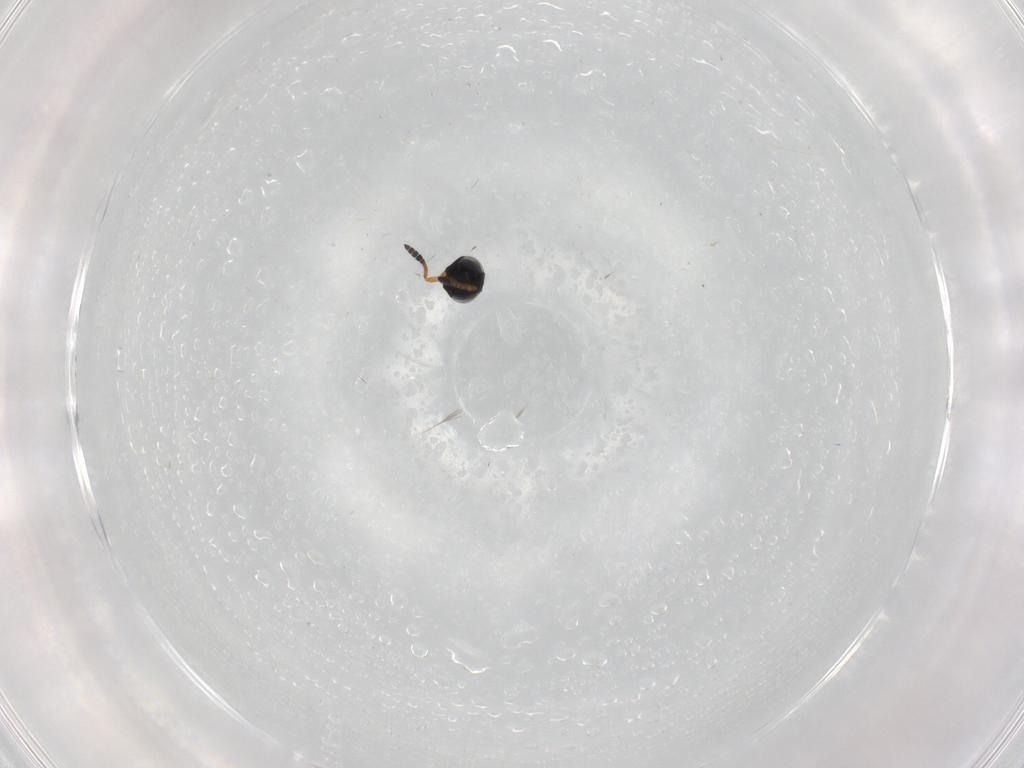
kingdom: Animalia
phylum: Arthropoda
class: Insecta
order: Hymenoptera
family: Scelionidae
